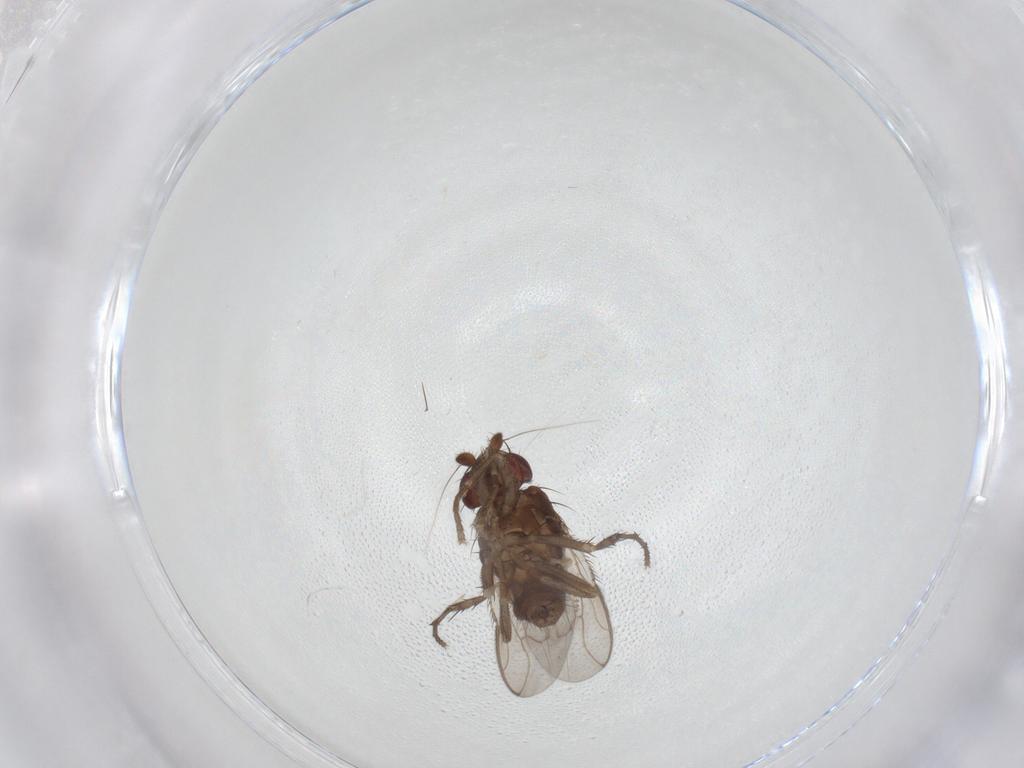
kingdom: Animalia
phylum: Arthropoda
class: Insecta
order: Diptera
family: Sphaeroceridae
